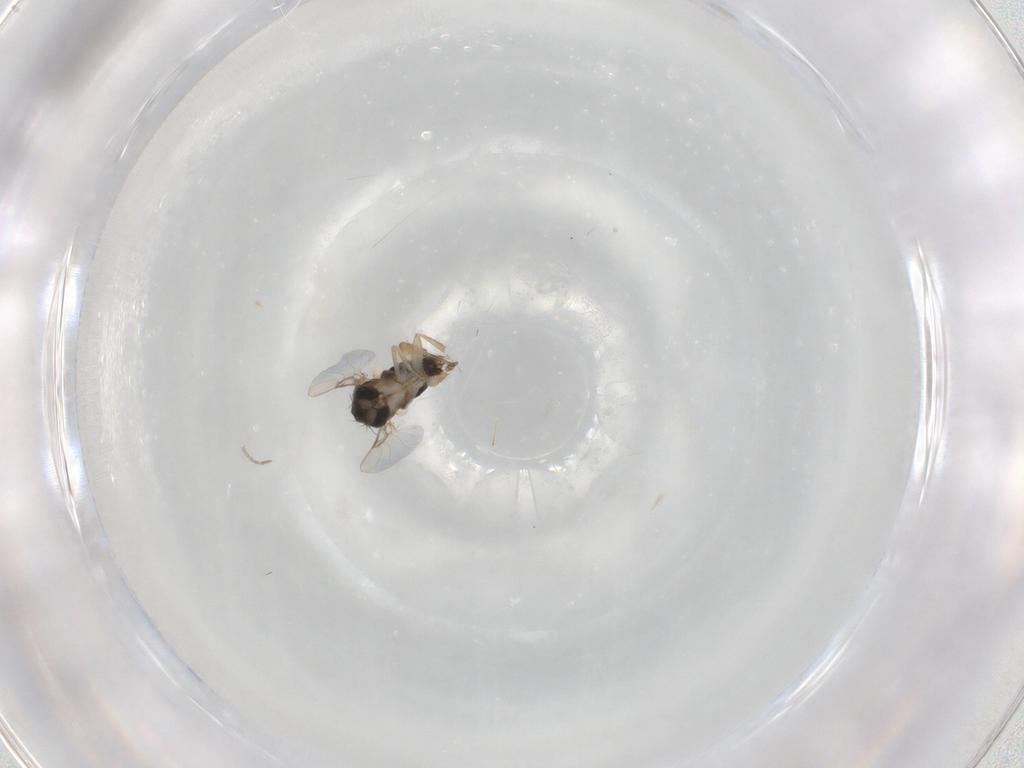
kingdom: Animalia
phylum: Arthropoda
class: Insecta
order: Diptera
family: Phoridae
